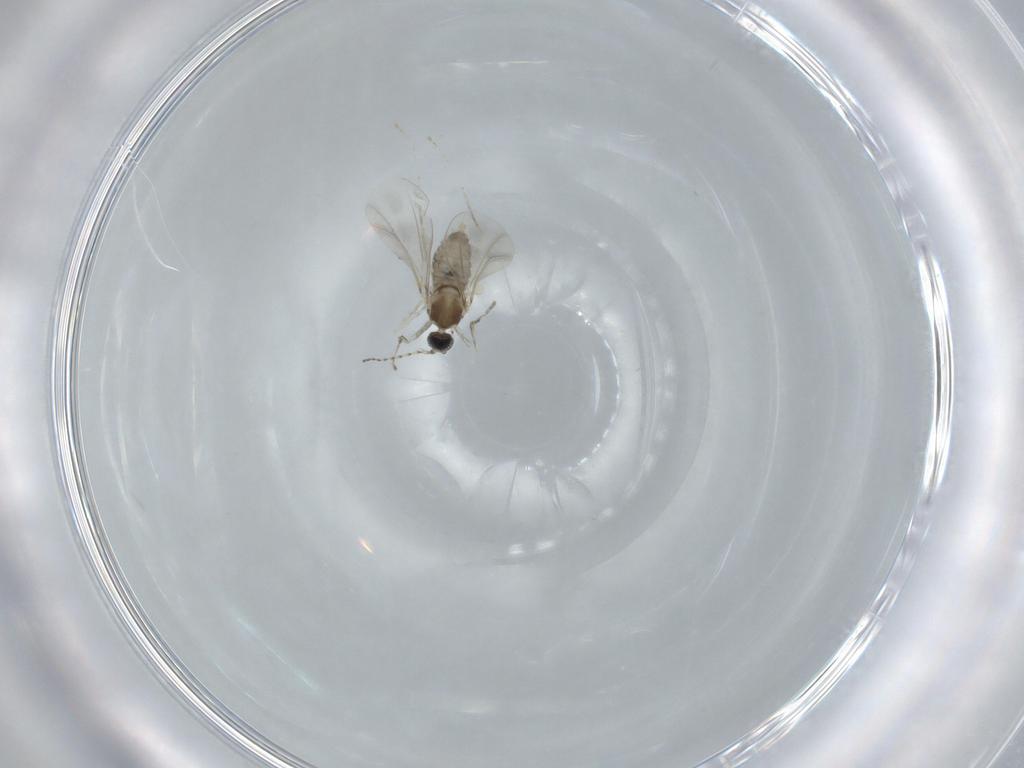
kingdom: Animalia
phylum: Arthropoda
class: Insecta
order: Diptera
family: Cecidomyiidae
